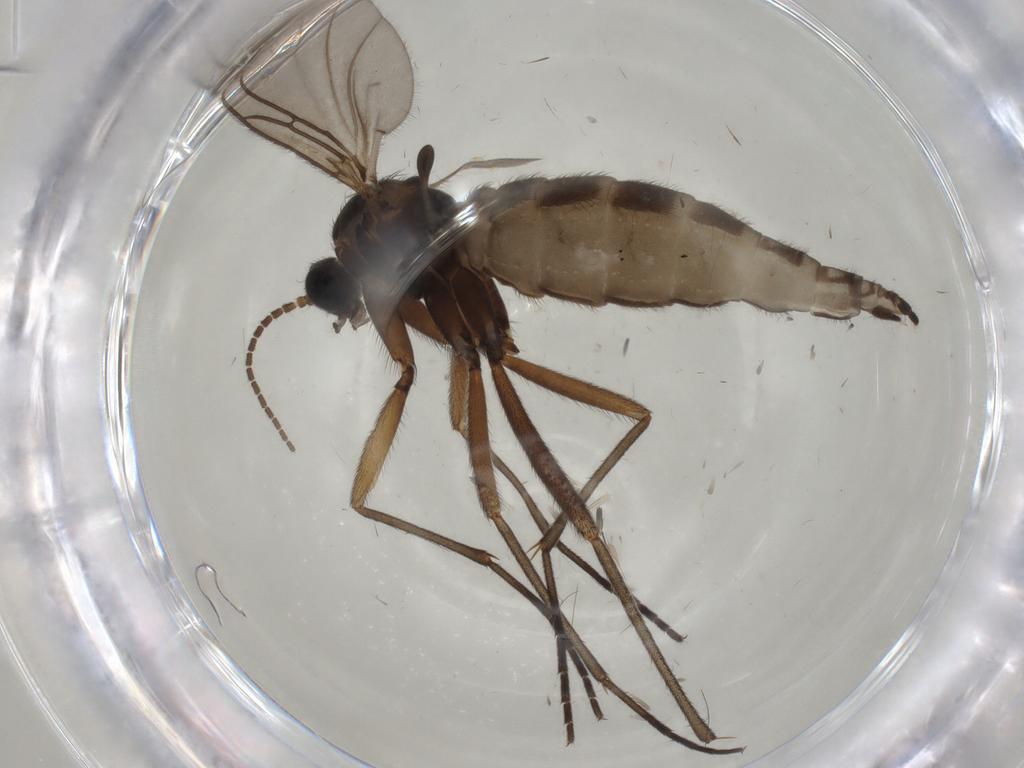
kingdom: Animalia
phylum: Arthropoda
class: Insecta
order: Diptera
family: Sciaridae
